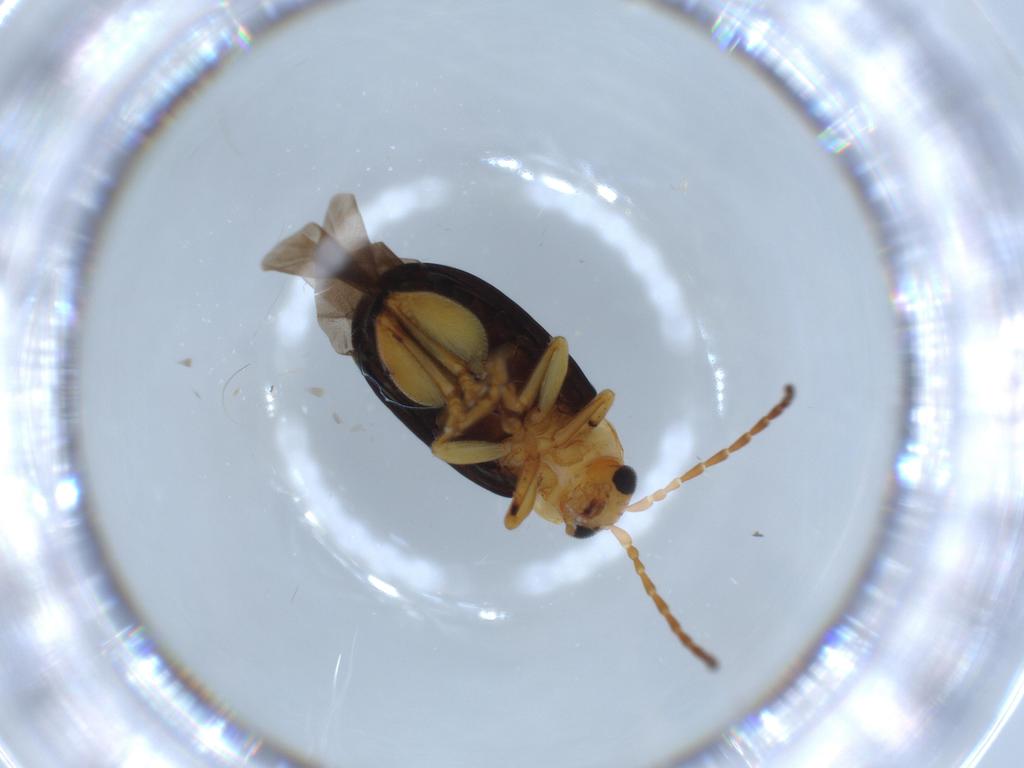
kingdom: Animalia
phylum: Arthropoda
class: Insecta
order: Coleoptera
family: Chrysomelidae
